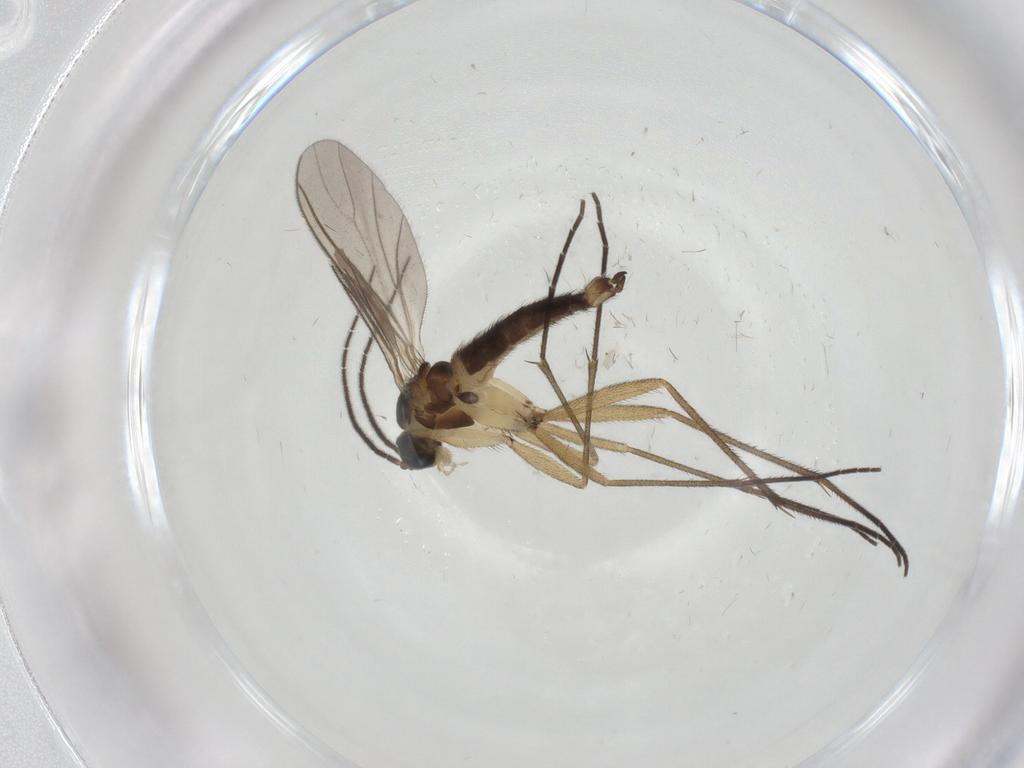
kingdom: Animalia
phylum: Arthropoda
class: Insecta
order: Diptera
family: Sciaridae
